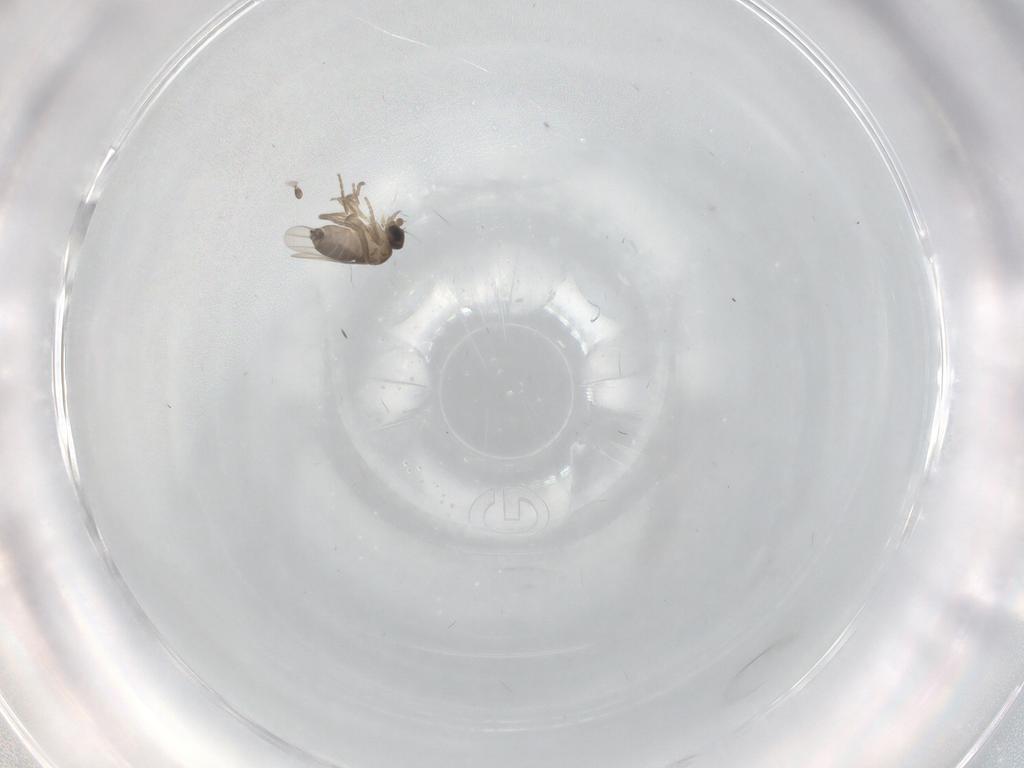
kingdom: Animalia
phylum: Arthropoda
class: Insecta
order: Diptera
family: Phoridae
